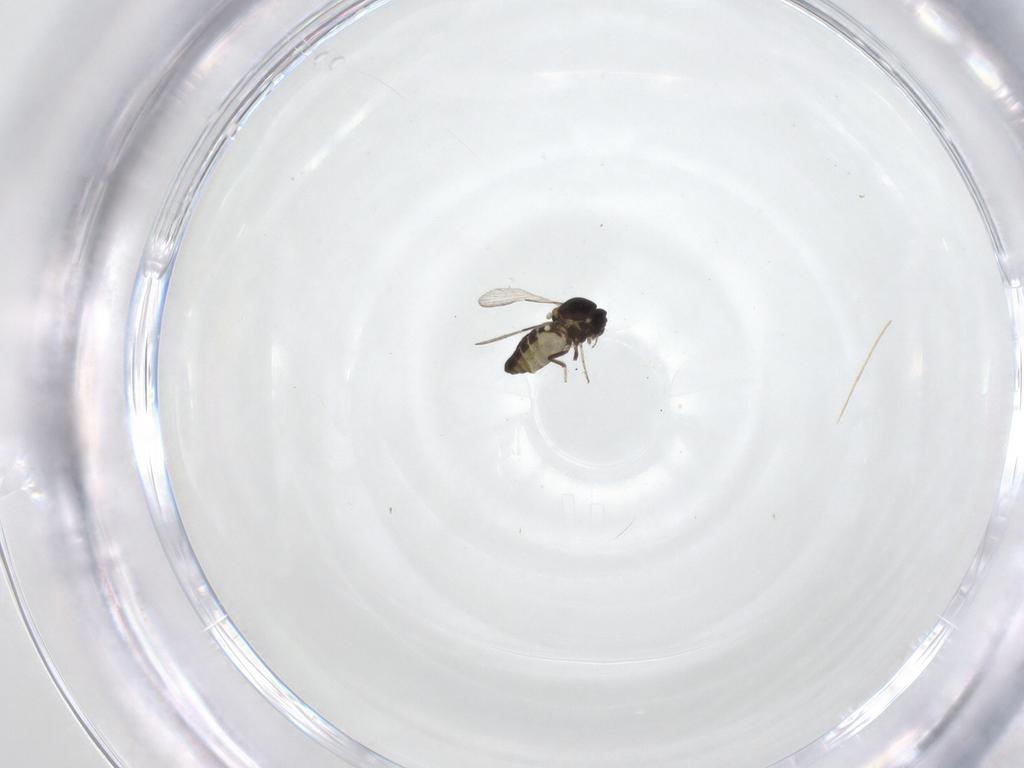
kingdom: Animalia
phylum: Arthropoda
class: Insecta
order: Diptera
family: Ceratopogonidae
